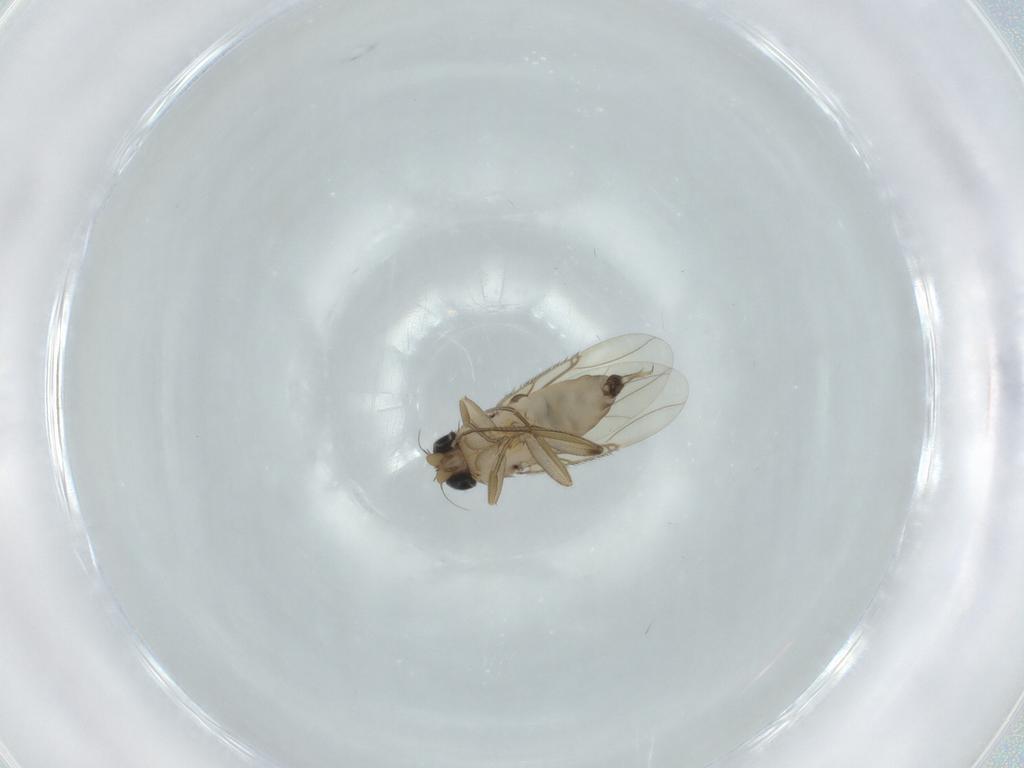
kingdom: Animalia
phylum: Arthropoda
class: Insecta
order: Diptera
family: Phoridae
